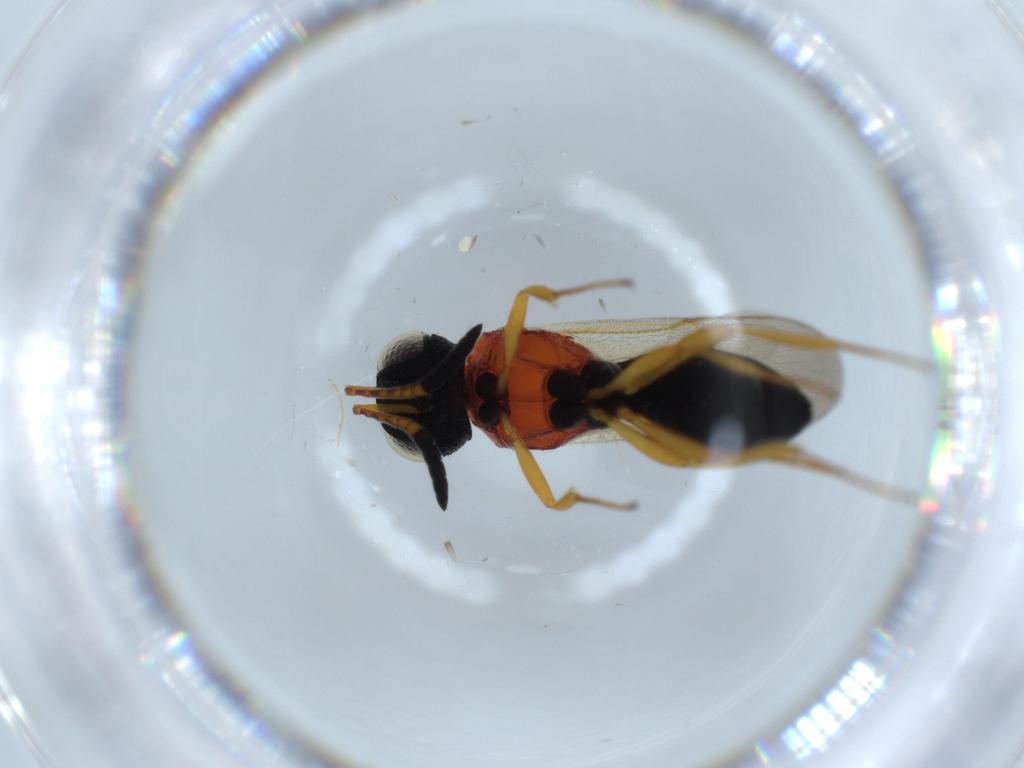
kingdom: Animalia
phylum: Arthropoda
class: Insecta
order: Hymenoptera
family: Scelionidae
